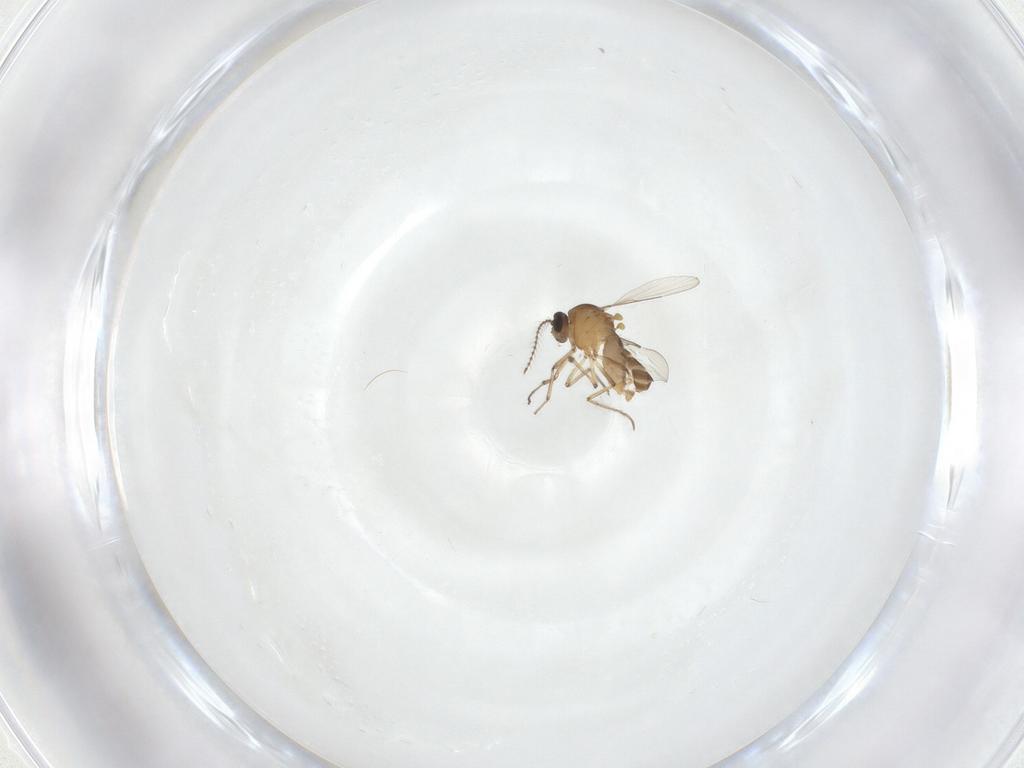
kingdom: Animalia
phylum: Arthropoda
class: Insecta
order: Diptera
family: Ceratopogonidae
